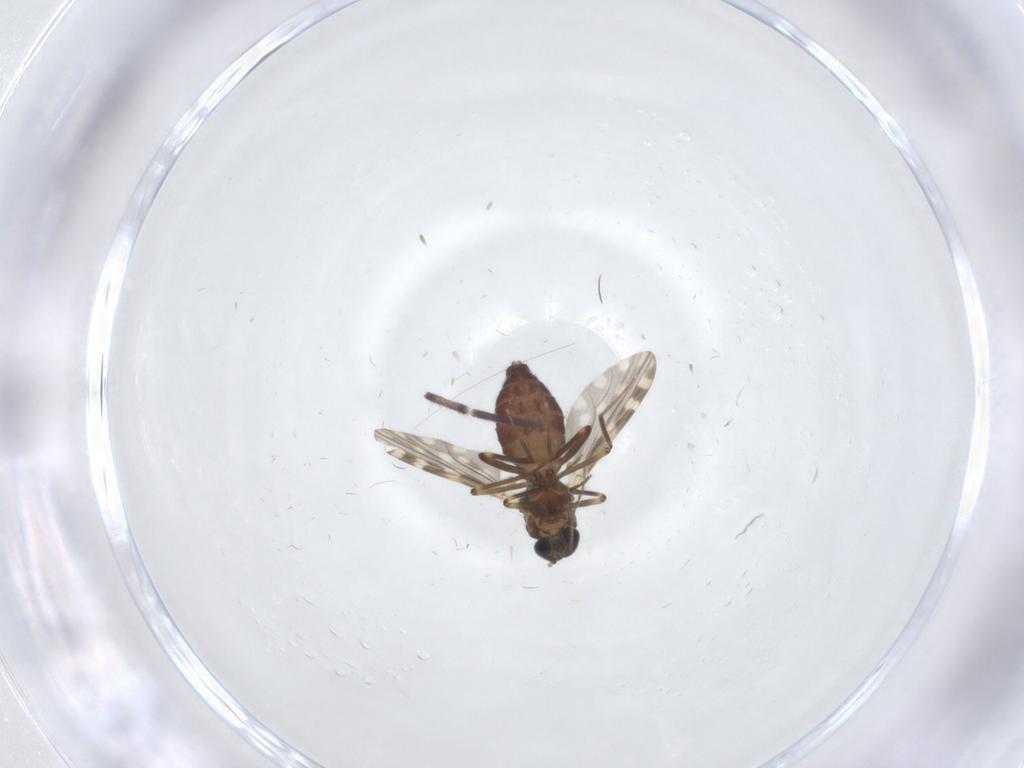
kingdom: Animalia
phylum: Arthropoda
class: Insecta
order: Diptera
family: Ceratopogonidae
